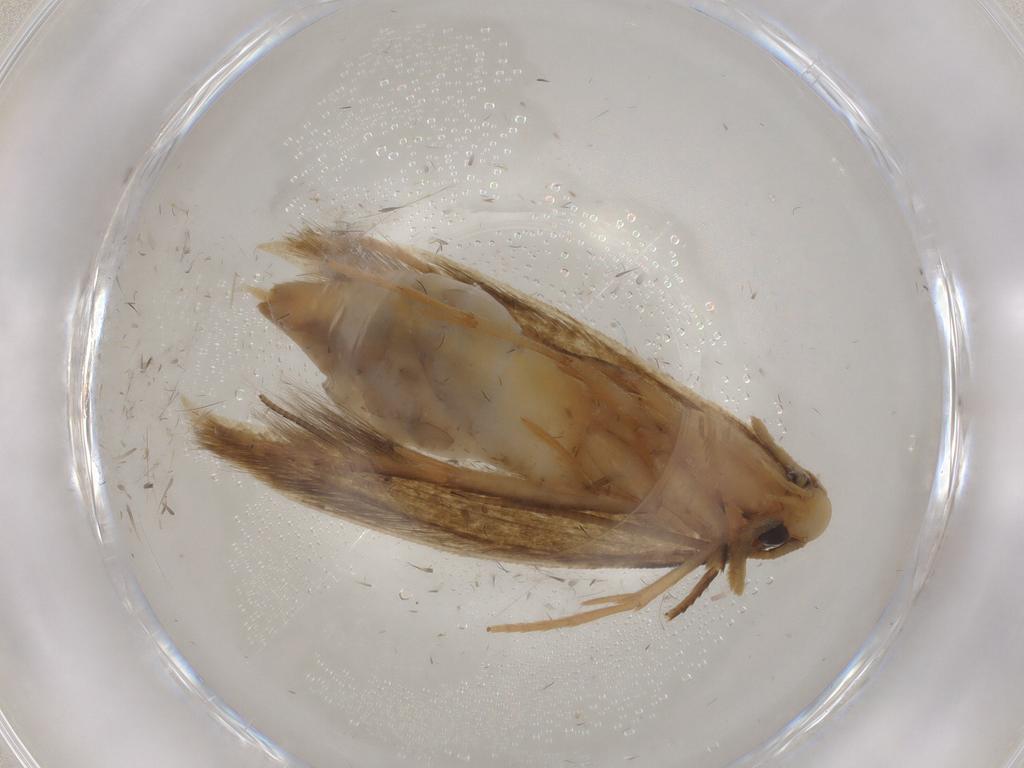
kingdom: Animalia
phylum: Arthropoda
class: Insecta
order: Lepidoptera
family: Tineidae
